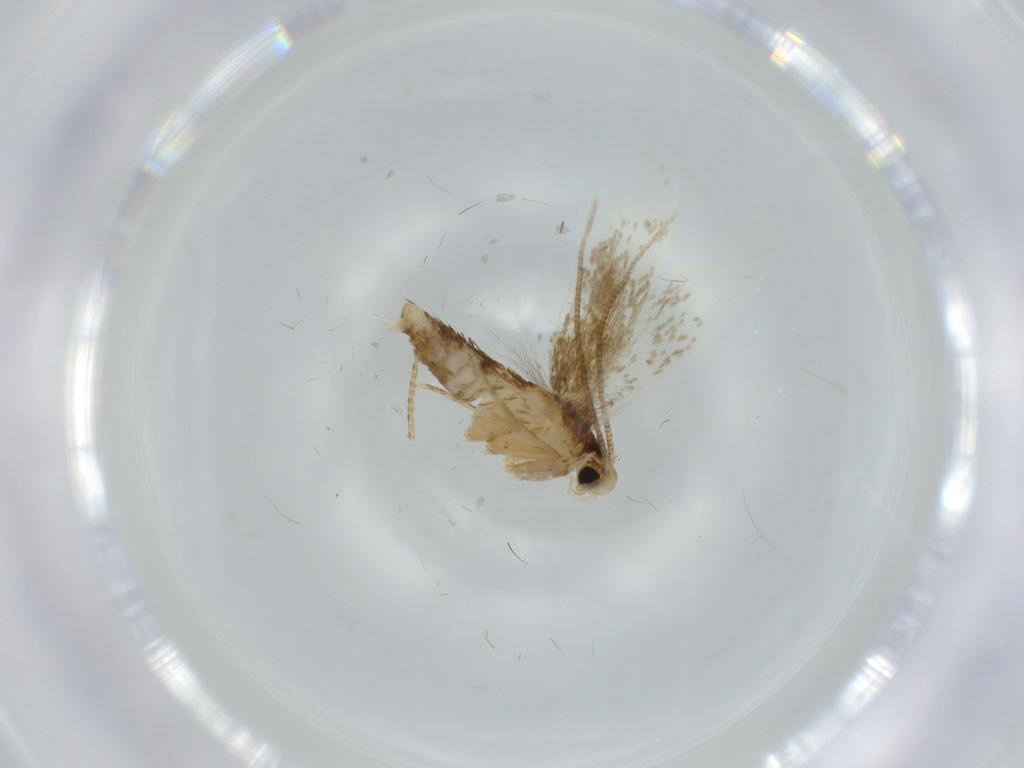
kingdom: Animalia
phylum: Arthropoda
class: Insecta
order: Lepidoptera
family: Tineidae
